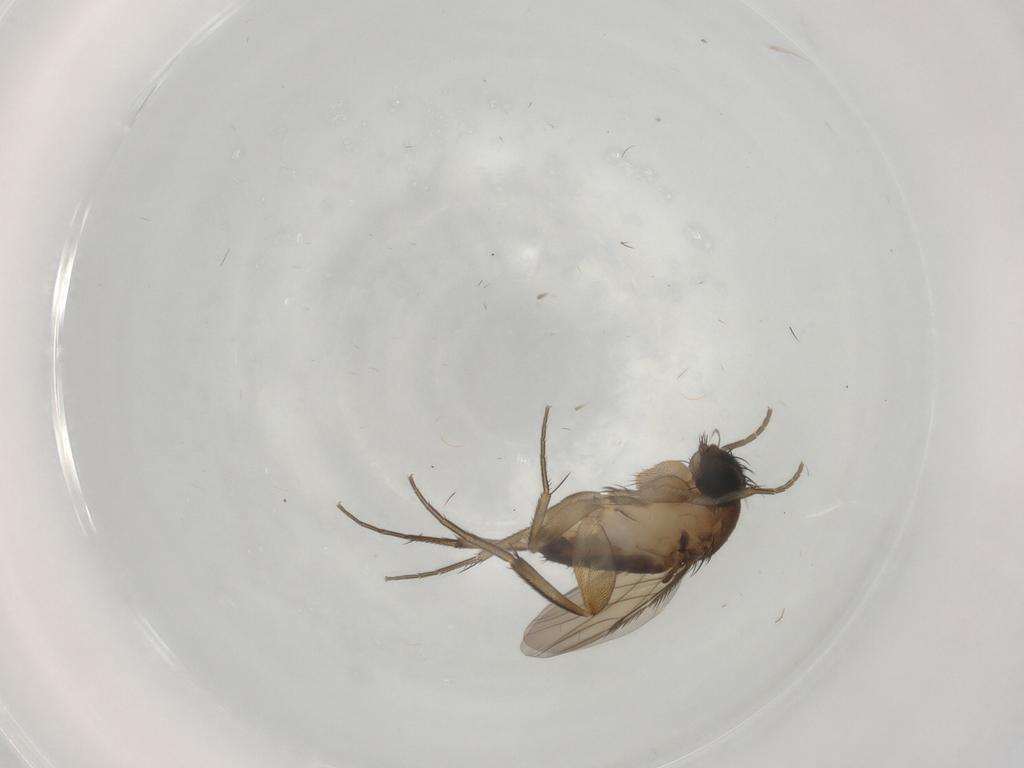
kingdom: Animalia
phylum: Arthropoda
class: Insecta
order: Diptera
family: Phoridae
